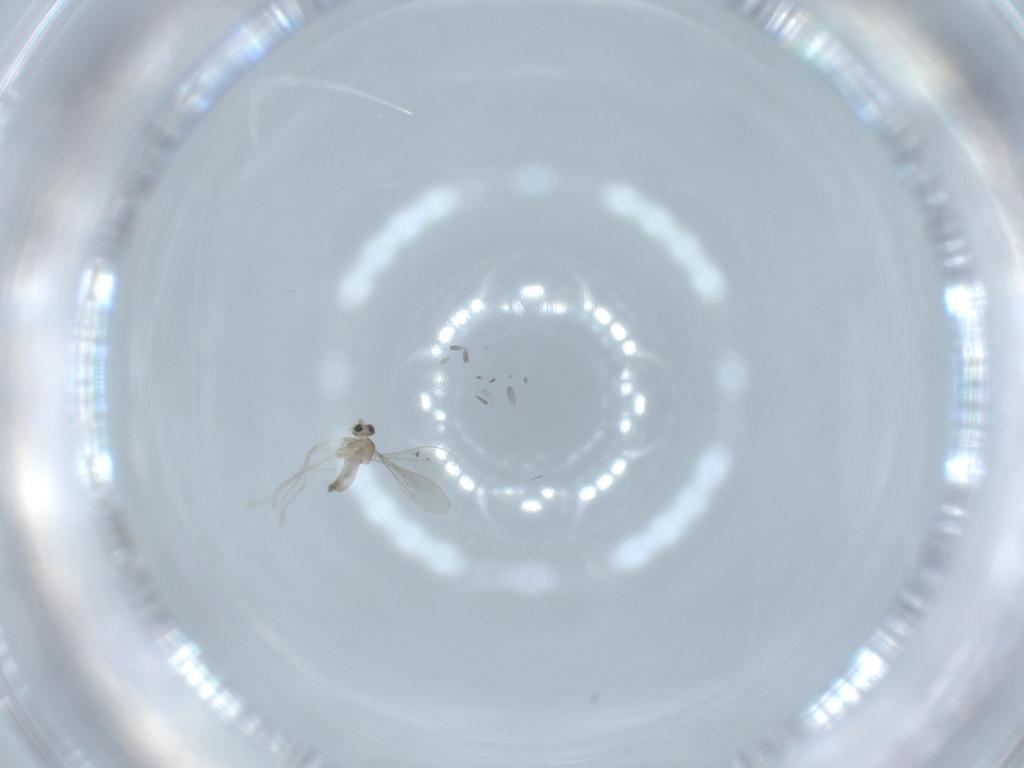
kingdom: Animalia
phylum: Arthropoda
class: Insecta
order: Diptera
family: Cecidomyiidae
